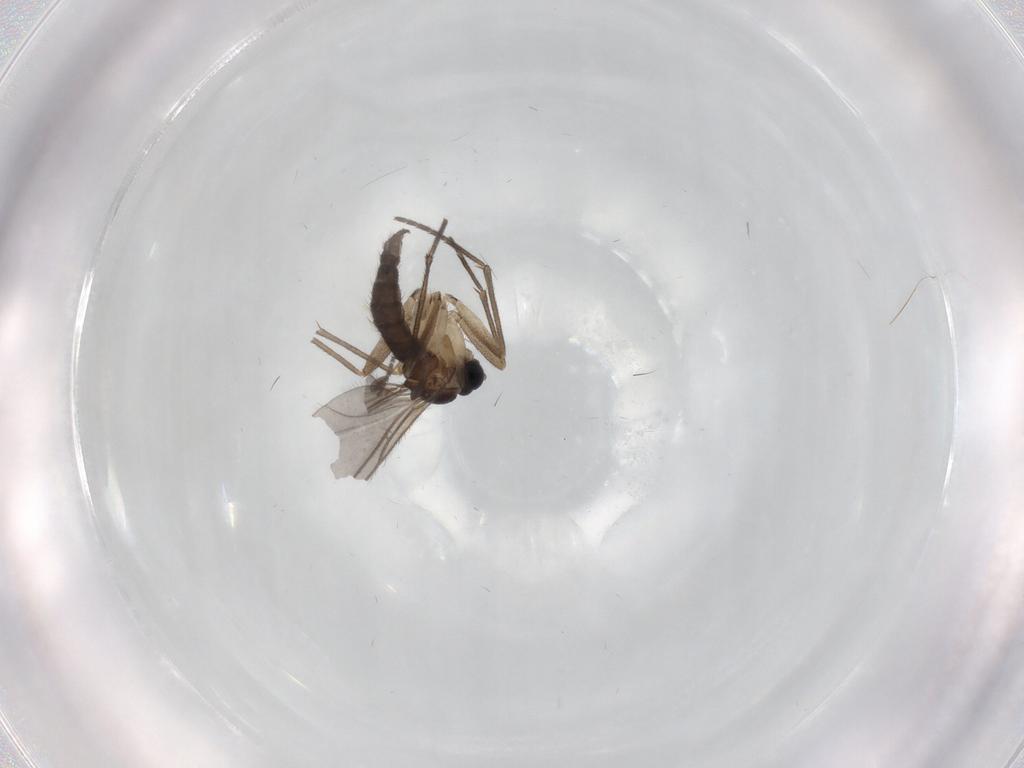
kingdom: Animalia
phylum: Arthropoda
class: Insecta
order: Diptera
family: Sciaridae
